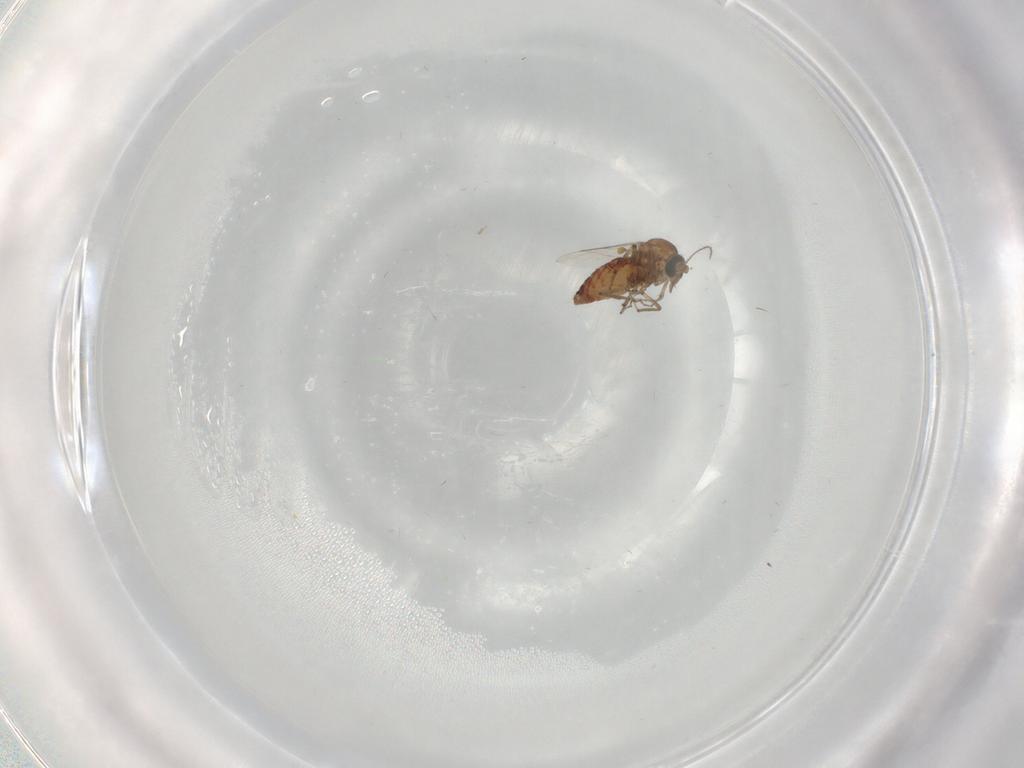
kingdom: Animalia
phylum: Arthropoda
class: Insecta
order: Diptera
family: Ceratopogonidae
